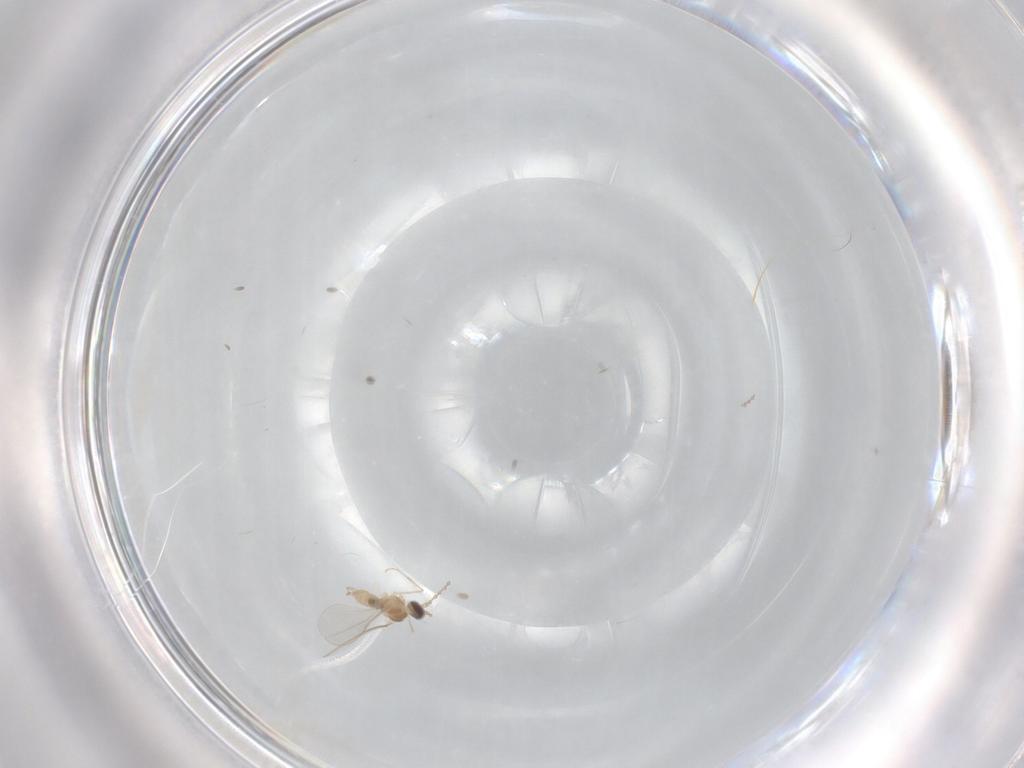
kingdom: Animalia
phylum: Arthropoda
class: Insecta
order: Diptera
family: Cecidomyiidae
